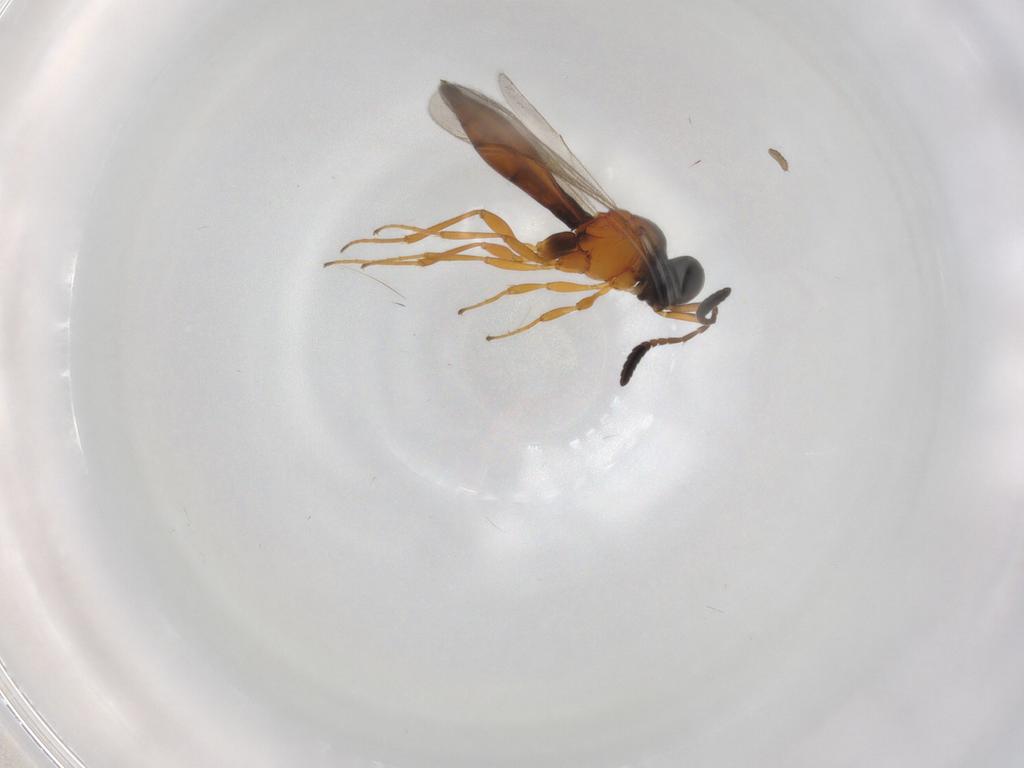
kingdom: Animalia
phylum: Arthropoda
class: Insecta
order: Hymenoptera
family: Scelionidae
